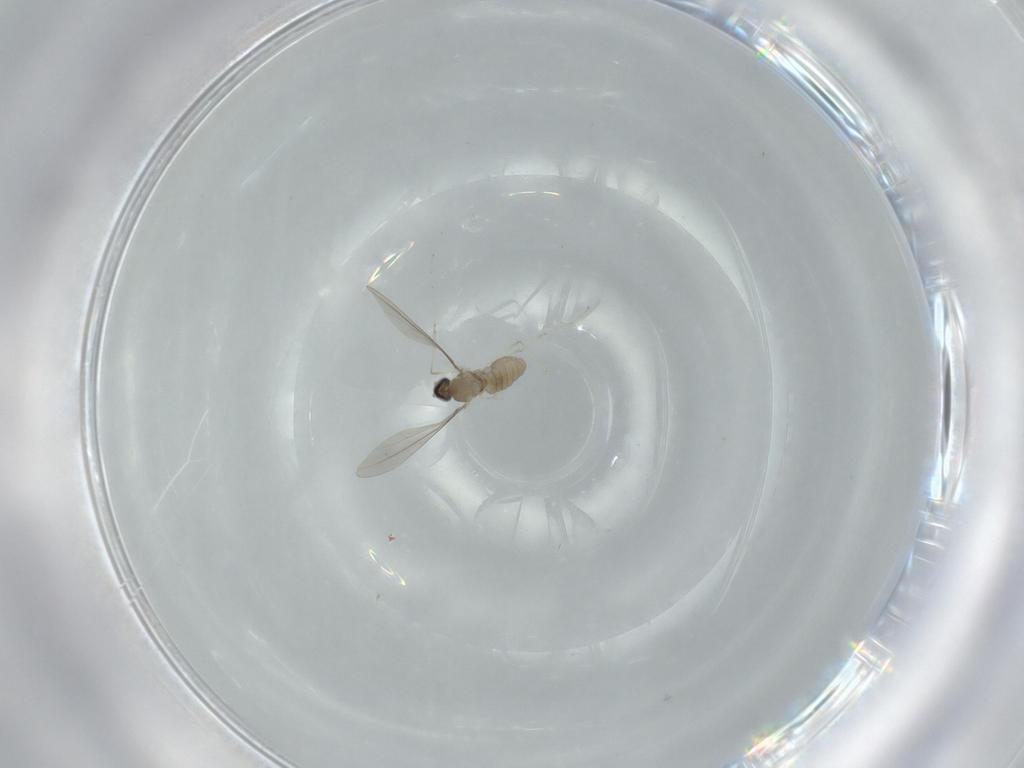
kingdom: Animalia
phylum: Arthropoda
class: Insecta
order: Diptera
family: Cecidomyiidae
